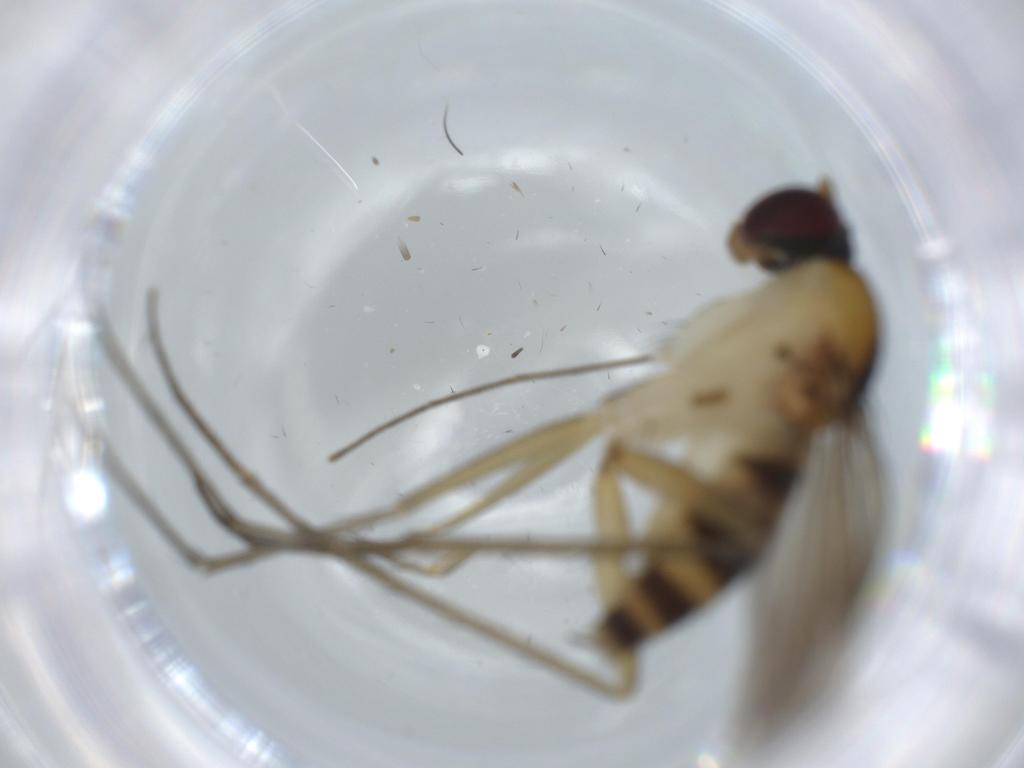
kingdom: Animalia
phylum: Arthropoda
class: Insecta
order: Diptera
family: Dolichopodidae
